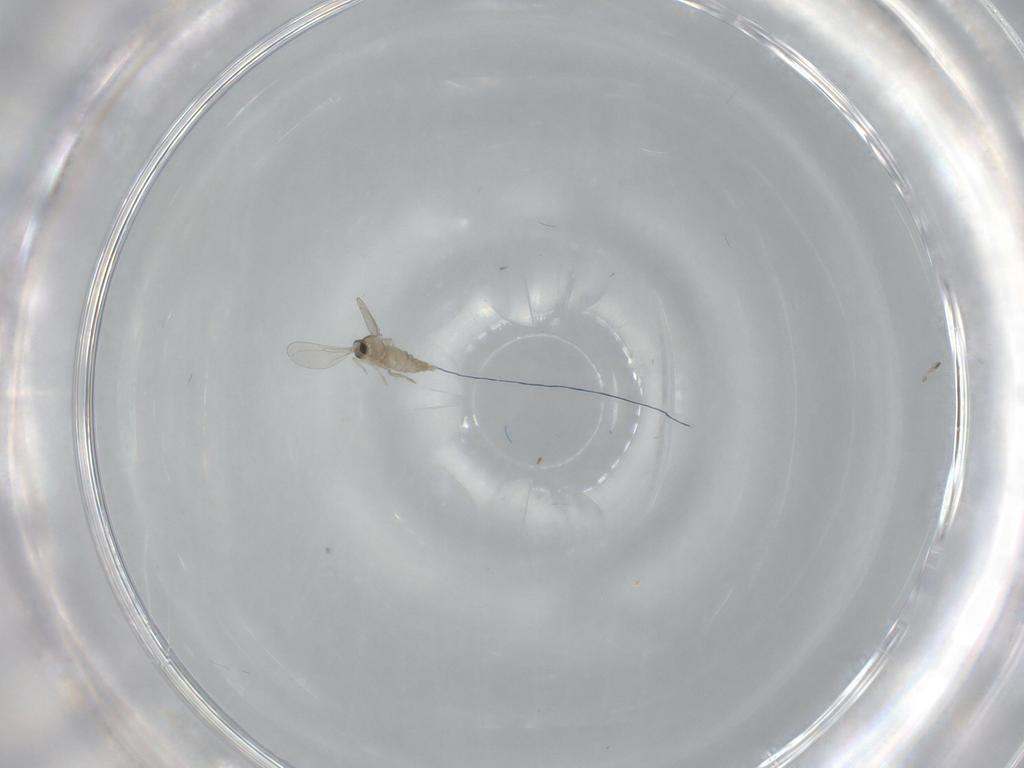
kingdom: Animalia
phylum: Arthropoda
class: Insecta
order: Diptera
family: Cecidomyiidae
